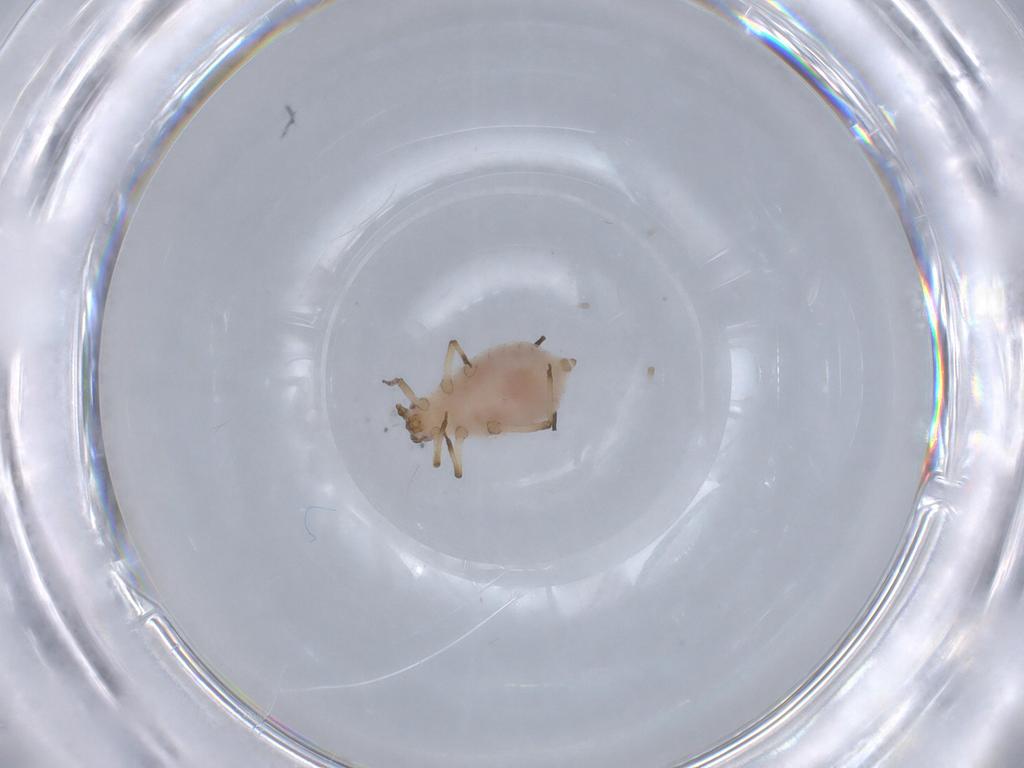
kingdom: Animalia
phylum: Arthropoda
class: Insecta
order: Hemiptera
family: Aphididae
